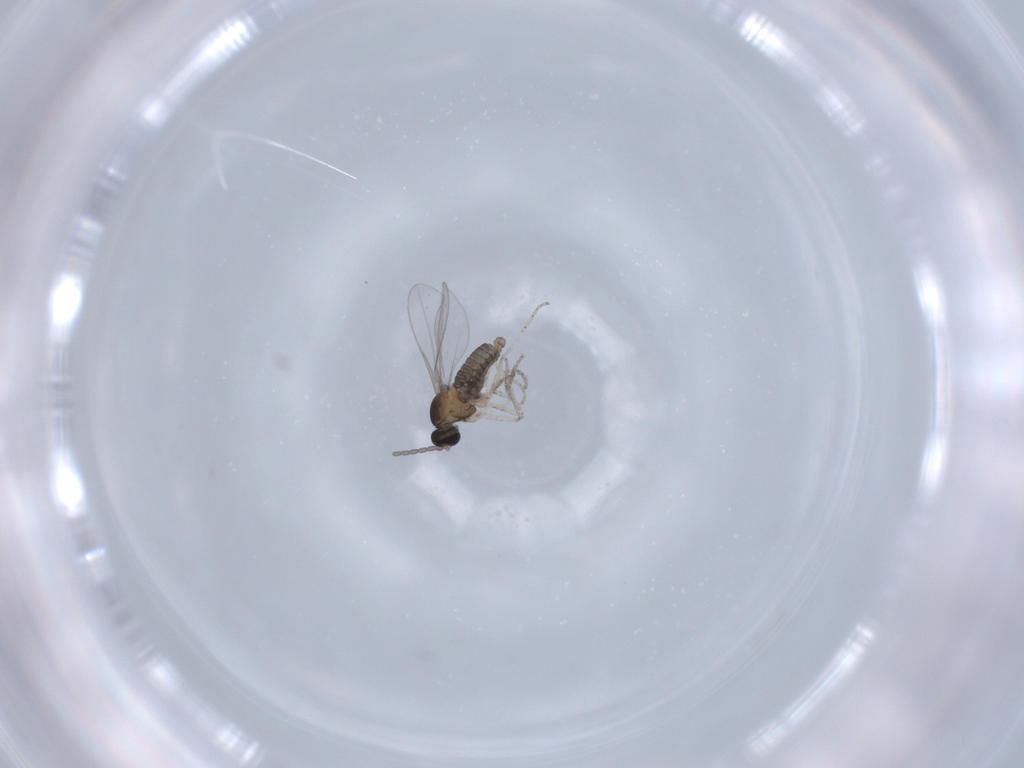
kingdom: Animalia
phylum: Arthropoda
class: Insecta
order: Diptera
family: Cecidomyiidae
